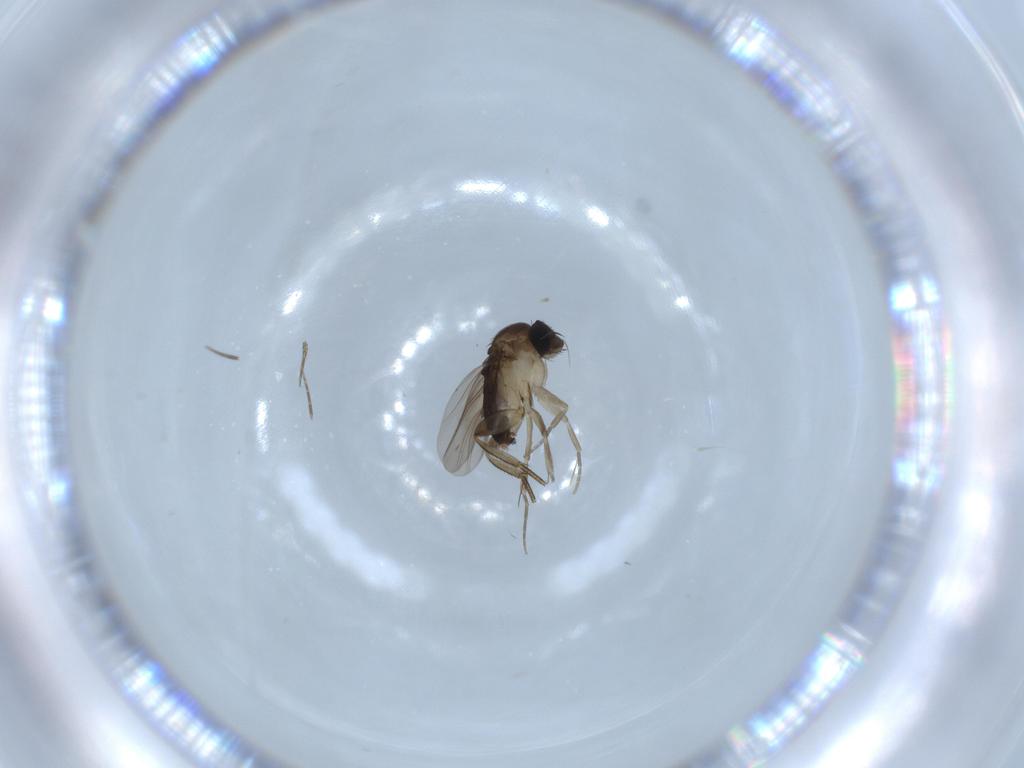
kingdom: Animalia
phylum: Arthropoda
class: Insecta
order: Diptera
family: Phoridae
